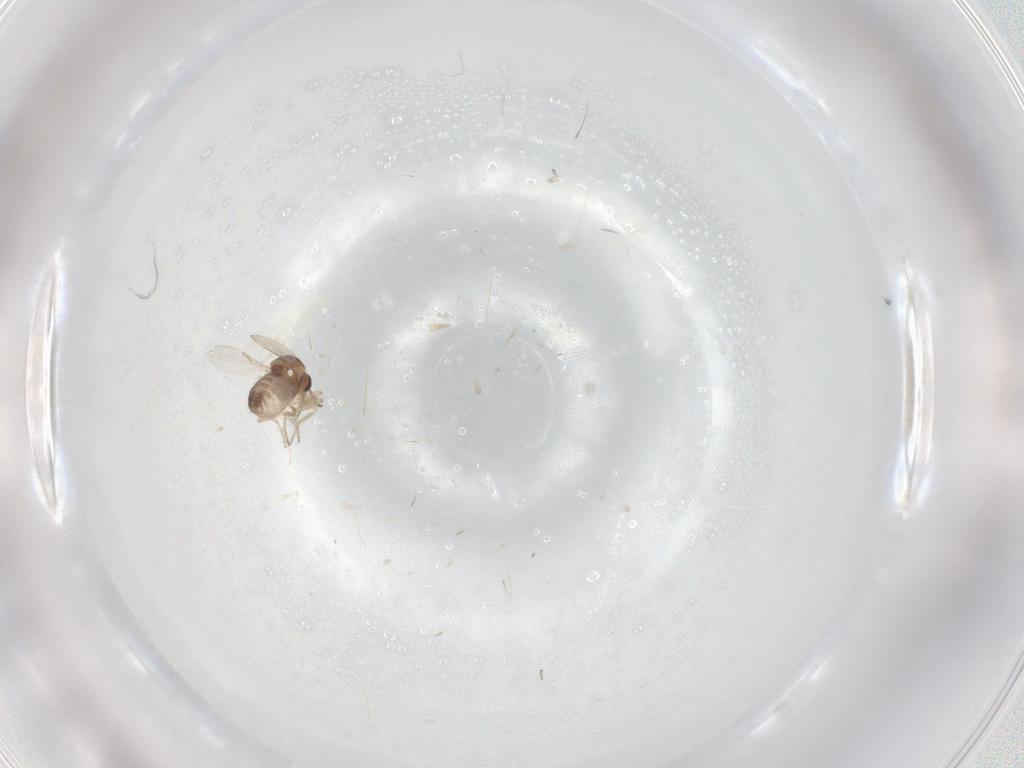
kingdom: Animalia
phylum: Arthropoda
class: Insecta
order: Diptera
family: Ceratopogonidae
